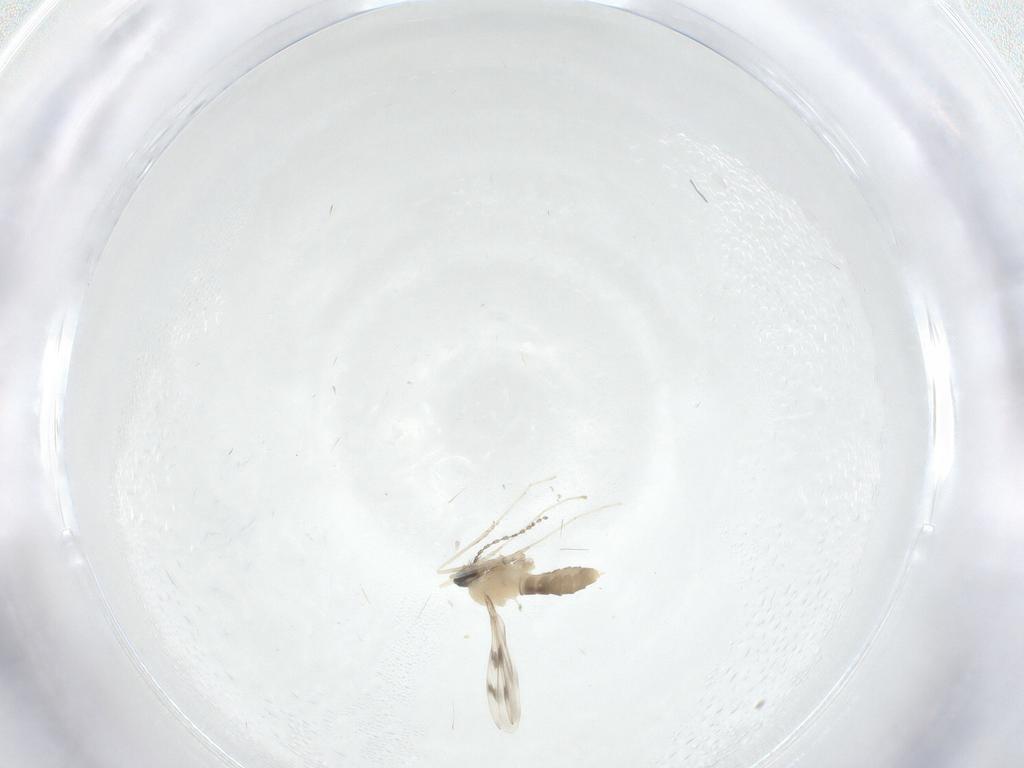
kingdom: Animalia
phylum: Arthropoda
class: Insecta
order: Diptera
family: Cecidomyiidae
